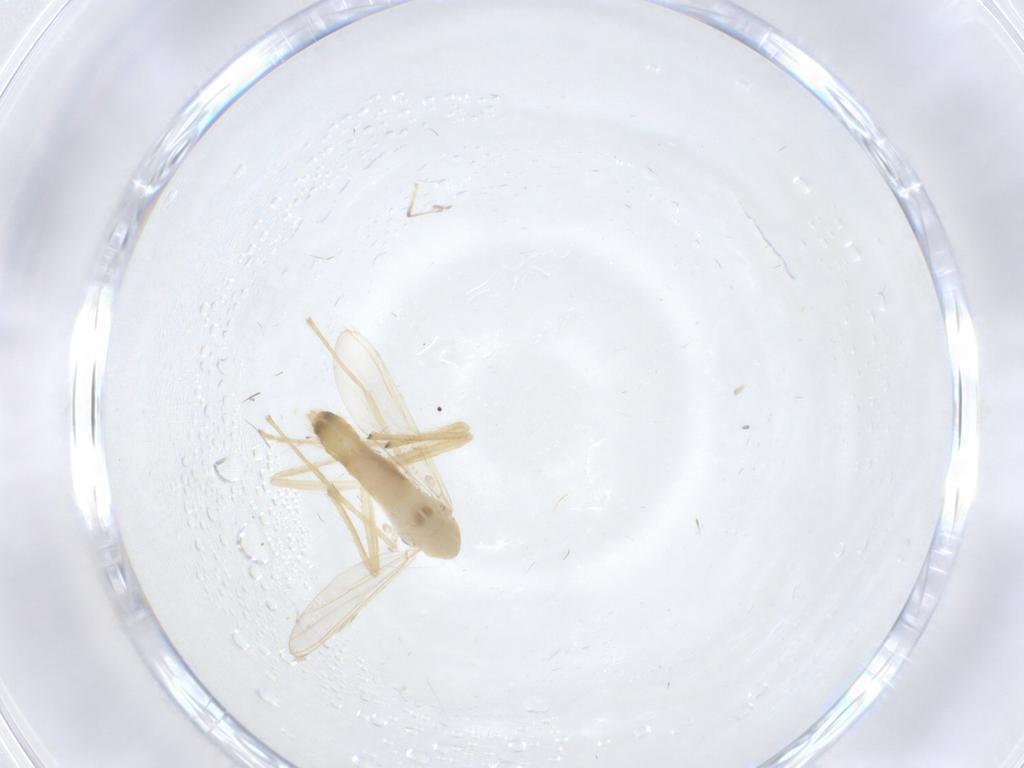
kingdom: Animalia
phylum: Arthropoda
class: Insecta
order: Diptera
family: Chironomidae
